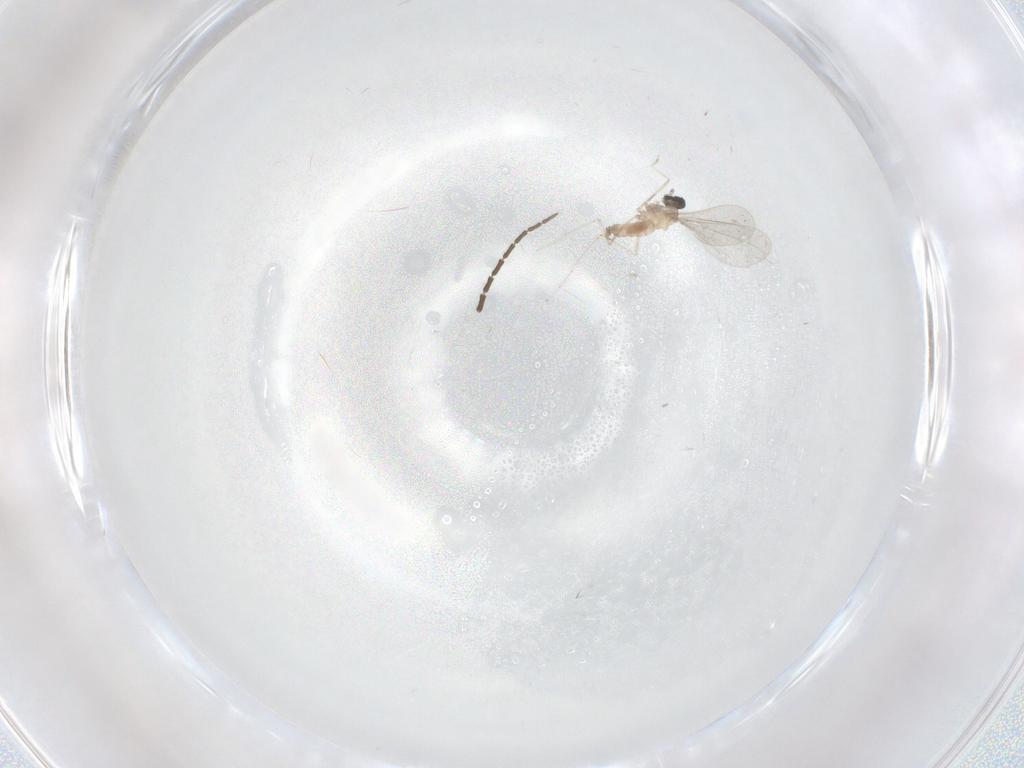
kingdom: Animalia
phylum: Arthropoda
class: Insecta
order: Diptera
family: Sciaridae
